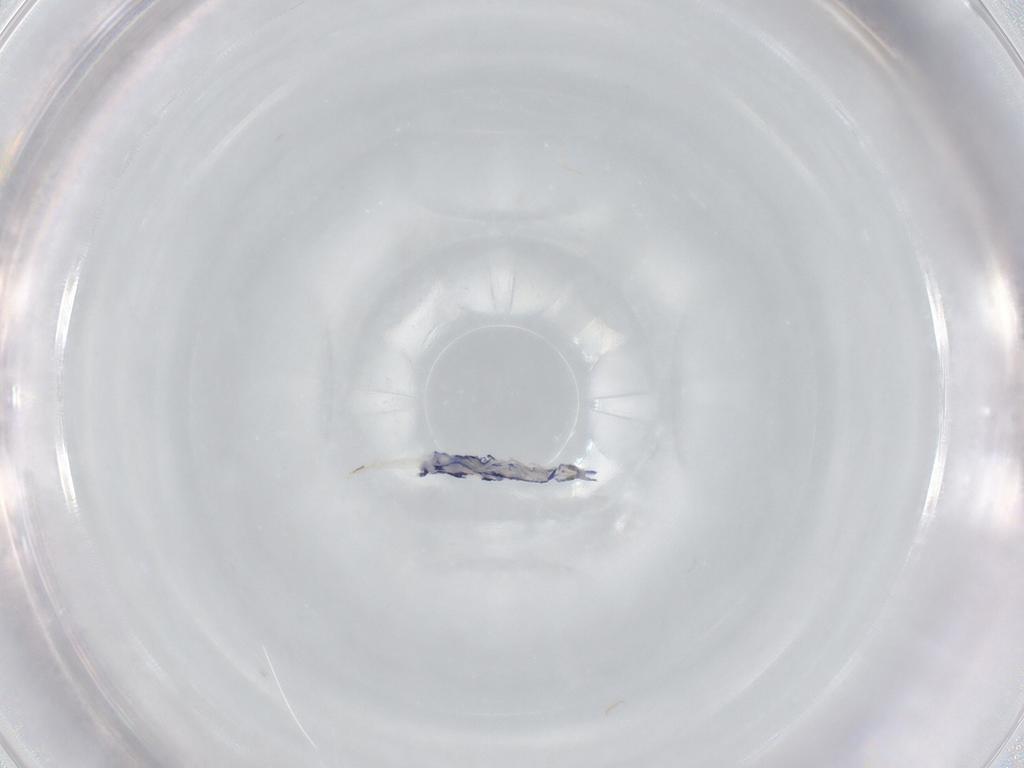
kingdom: Animalia
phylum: Arthropoda
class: Collembola
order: Entomobryomorpha
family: Entomobryidae
